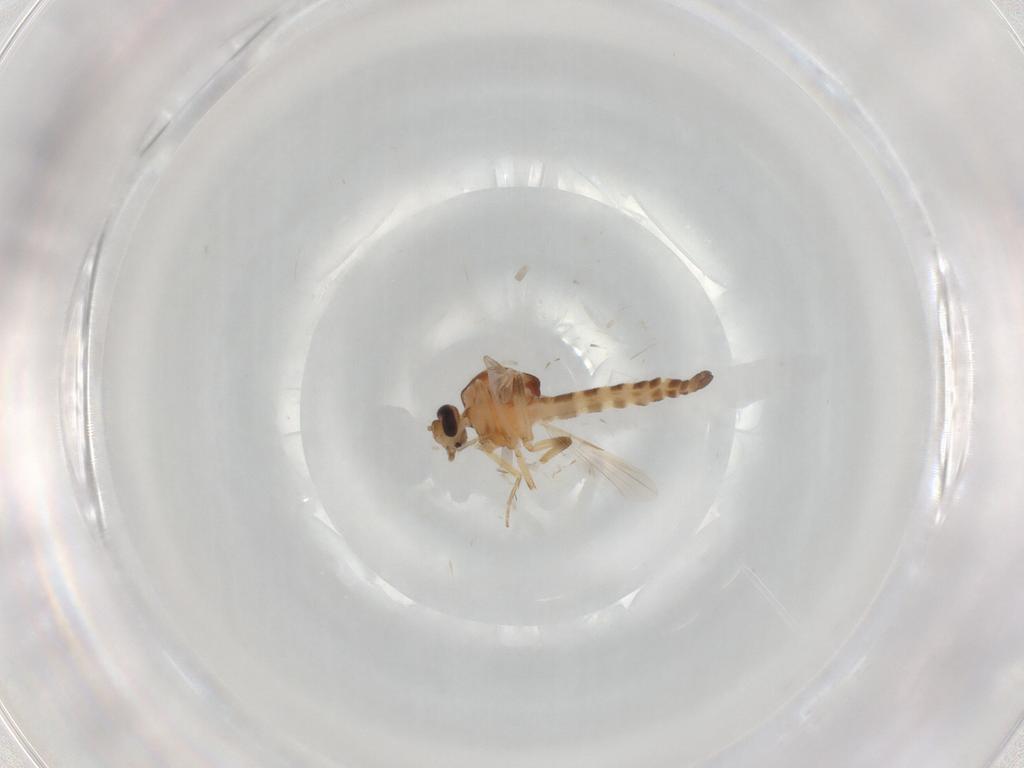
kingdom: Animalia
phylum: Arthropoda
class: Insecta
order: Diptera
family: Ceratopogonidae
